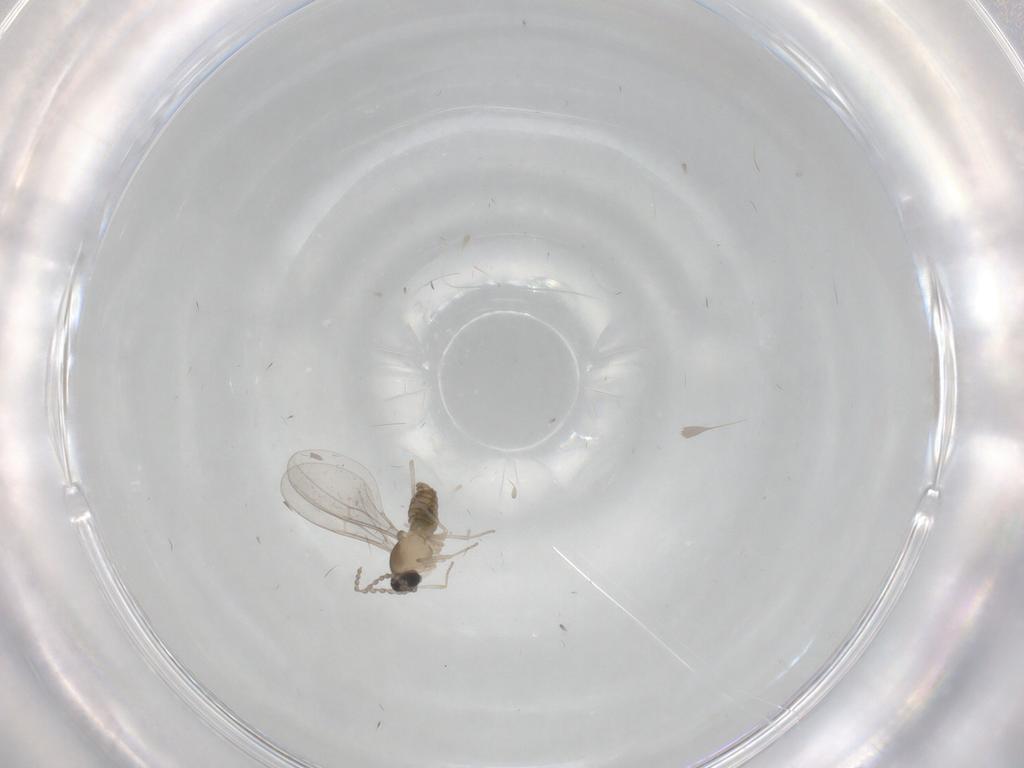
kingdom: Animalia
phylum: Arthropoda
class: Insecta
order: Diptera
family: Cecidomyiidae
